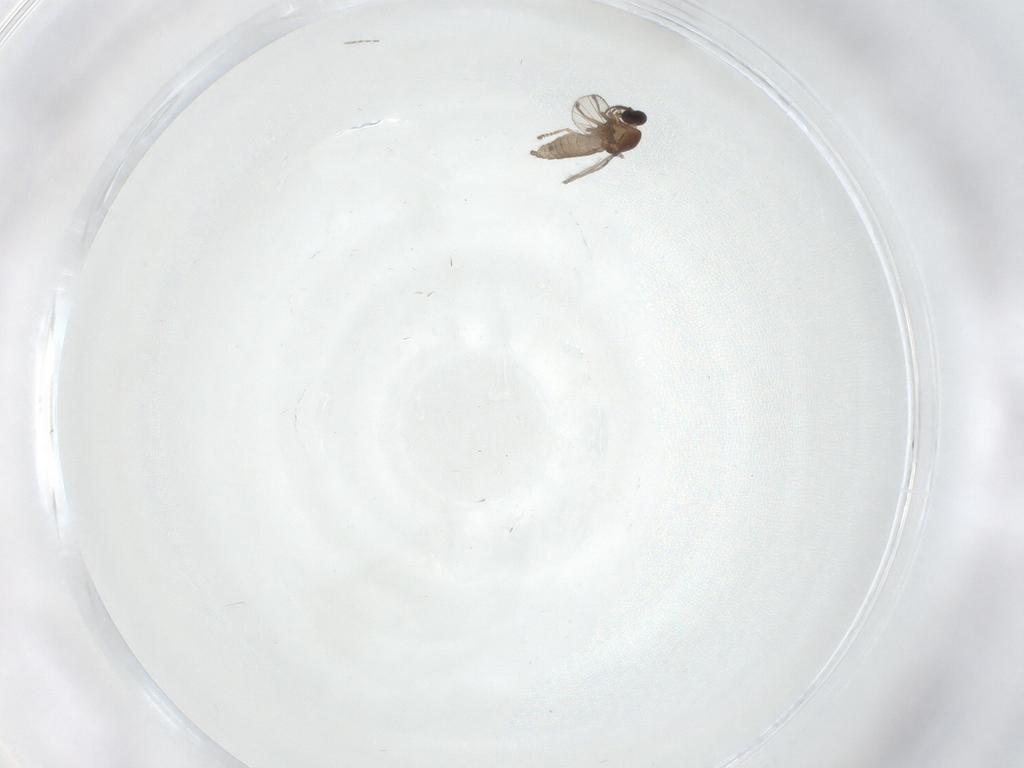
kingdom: Animalia
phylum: Arthropoda
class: Insecta
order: Diptera
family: Psychodidae
